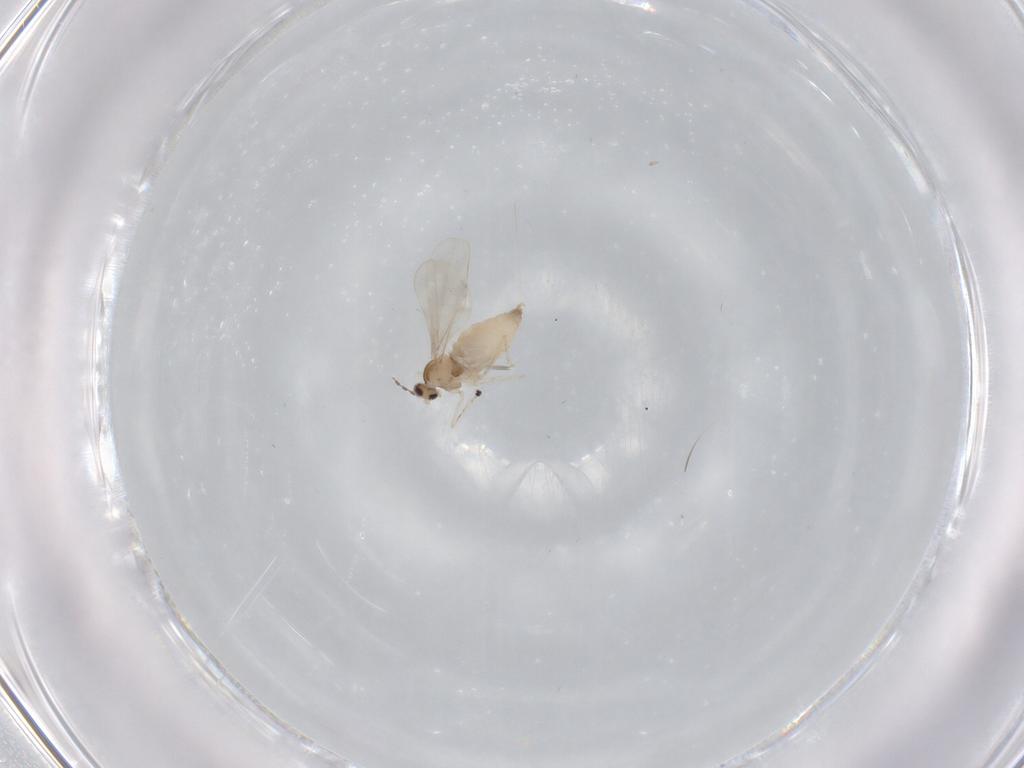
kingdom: Animalia
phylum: Arthropoda
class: Insecta
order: Diptera
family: Cecidomyiidae
